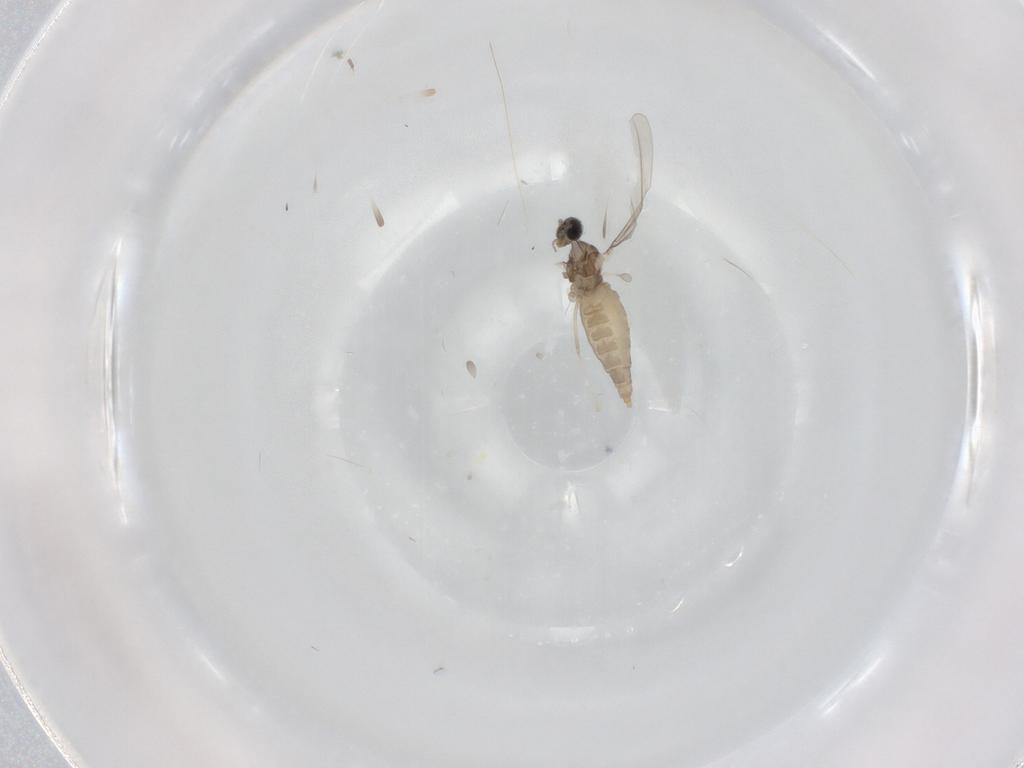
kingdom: Animalia
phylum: Arthropoda
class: Insecta
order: Diptera
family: Cecidomyiidae
